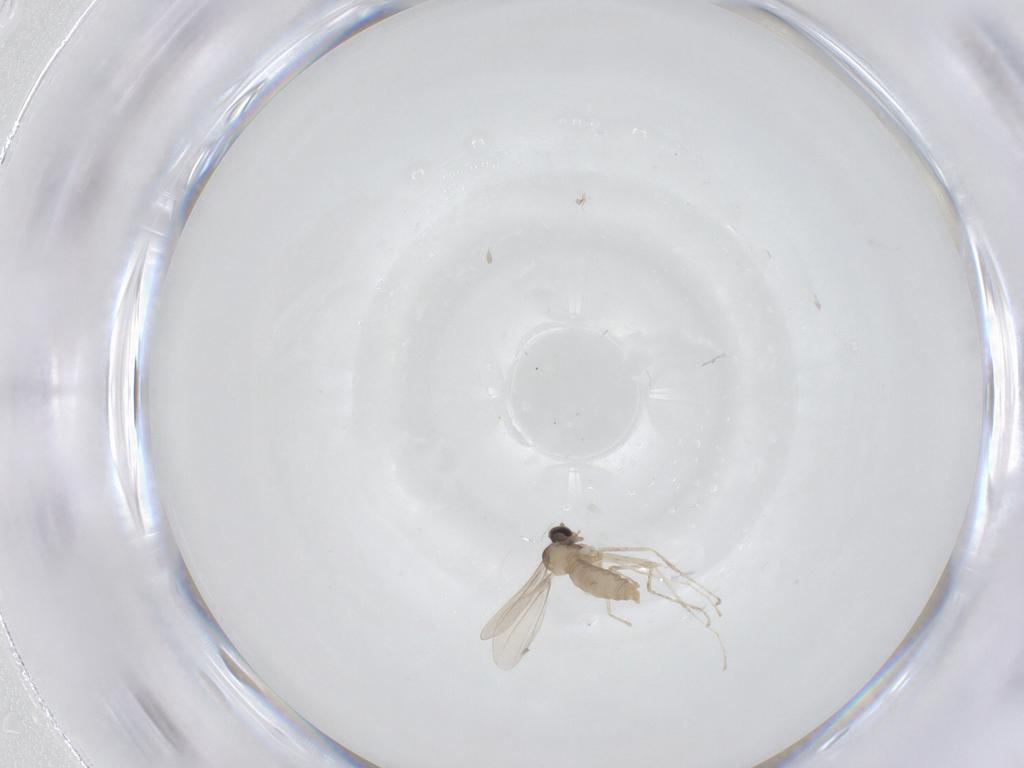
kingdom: Animalia
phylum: Arthropoda
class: Insecta
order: Diptera
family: Cecidomyiidae
